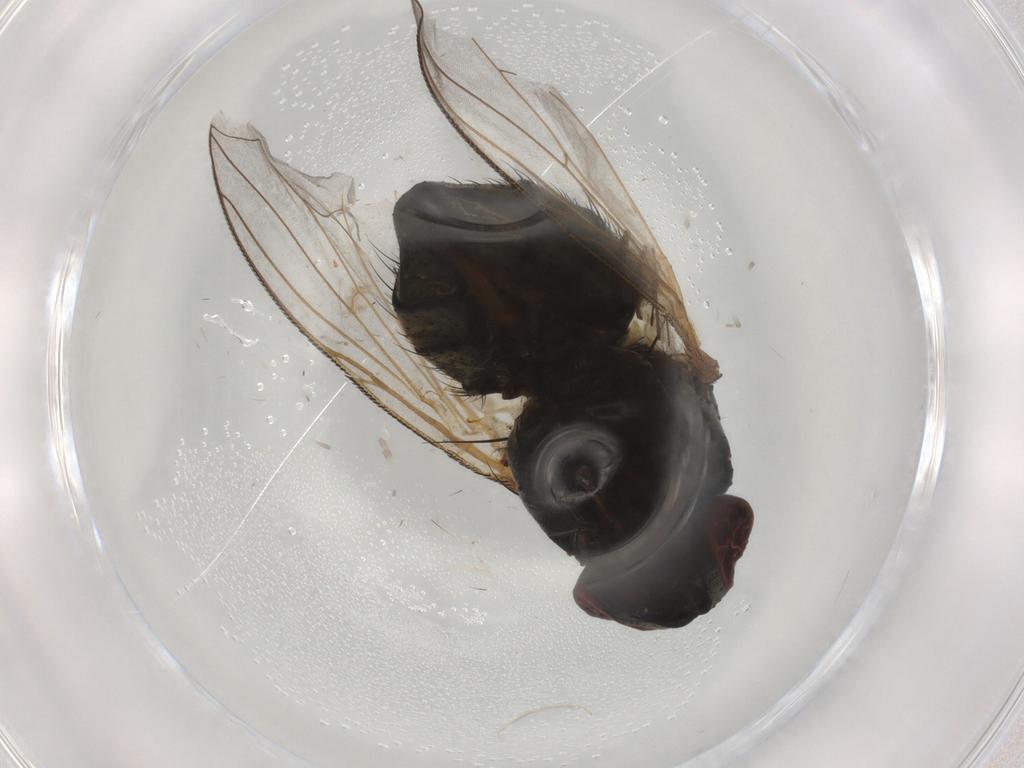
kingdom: Animalia
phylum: Arthropoda
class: Insecta
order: Diptera
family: Muscidae
